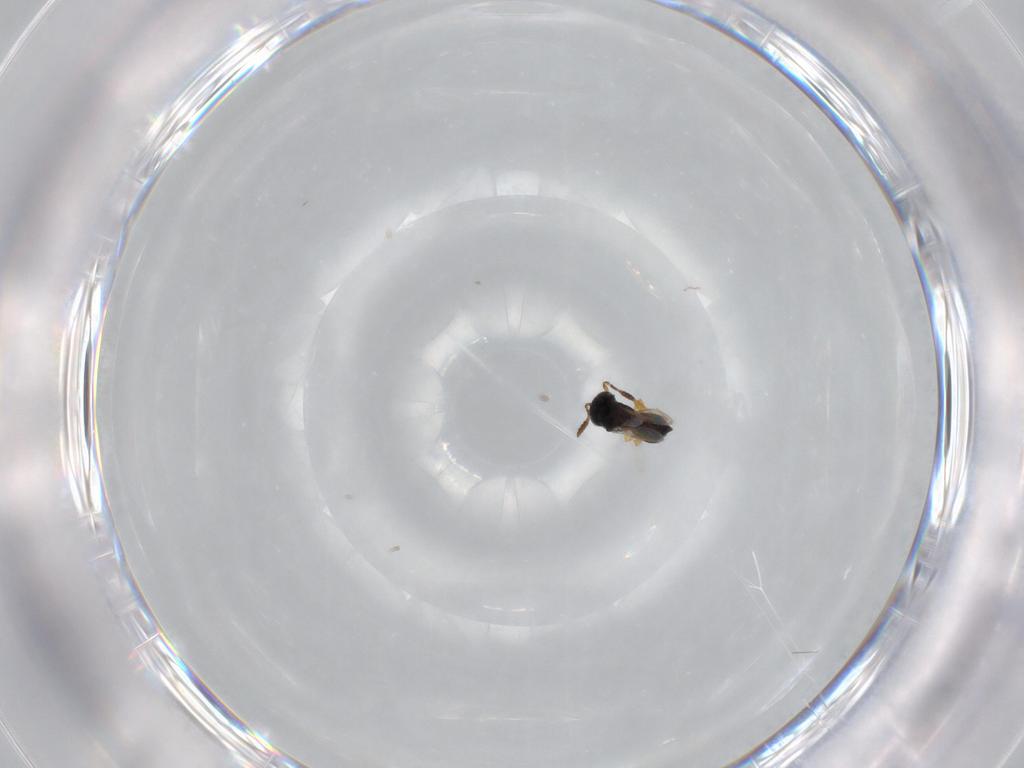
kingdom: Animalia
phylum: Arthropoda
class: Insecta
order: Hymenoptera
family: Scelionidae
